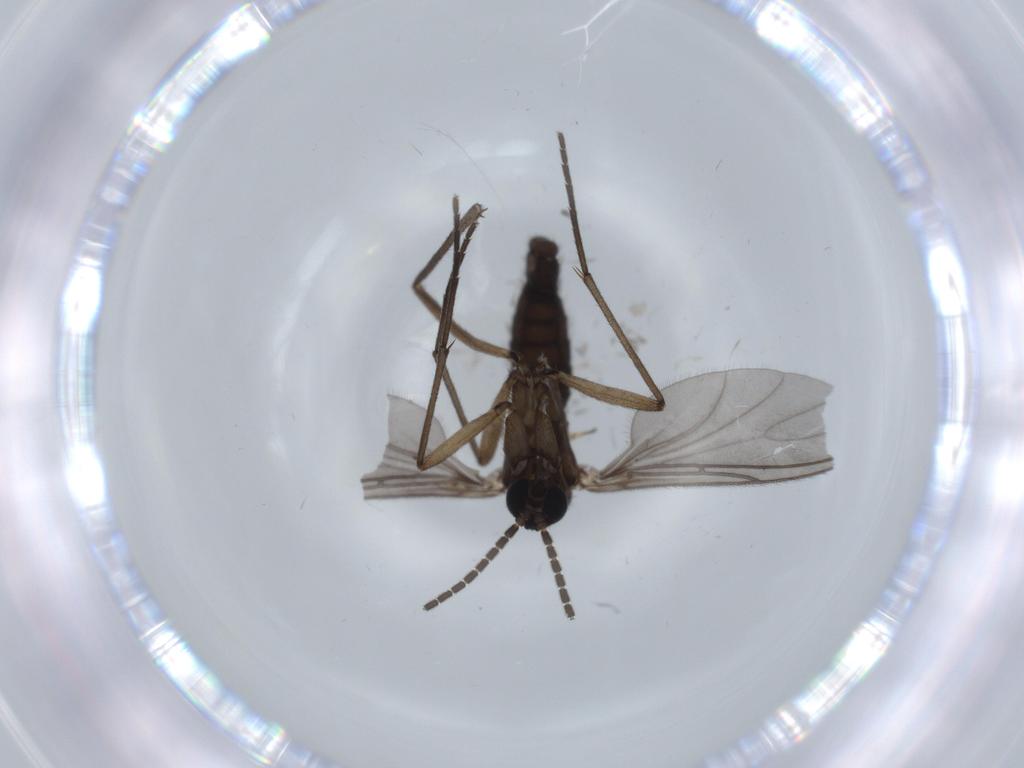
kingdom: Animalia
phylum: Arthropoda
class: Insecta
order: Diptera
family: Sciaridae
